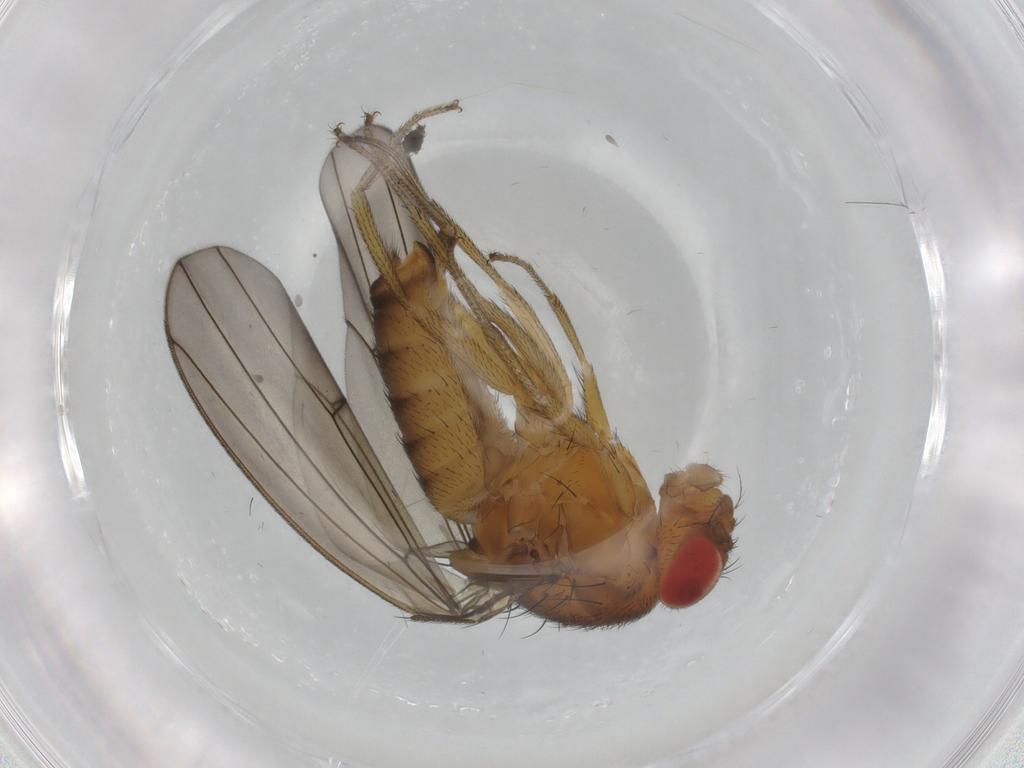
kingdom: Animalia
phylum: Arthropoda
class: Insecta
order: Diptera
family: Drosophilidae
